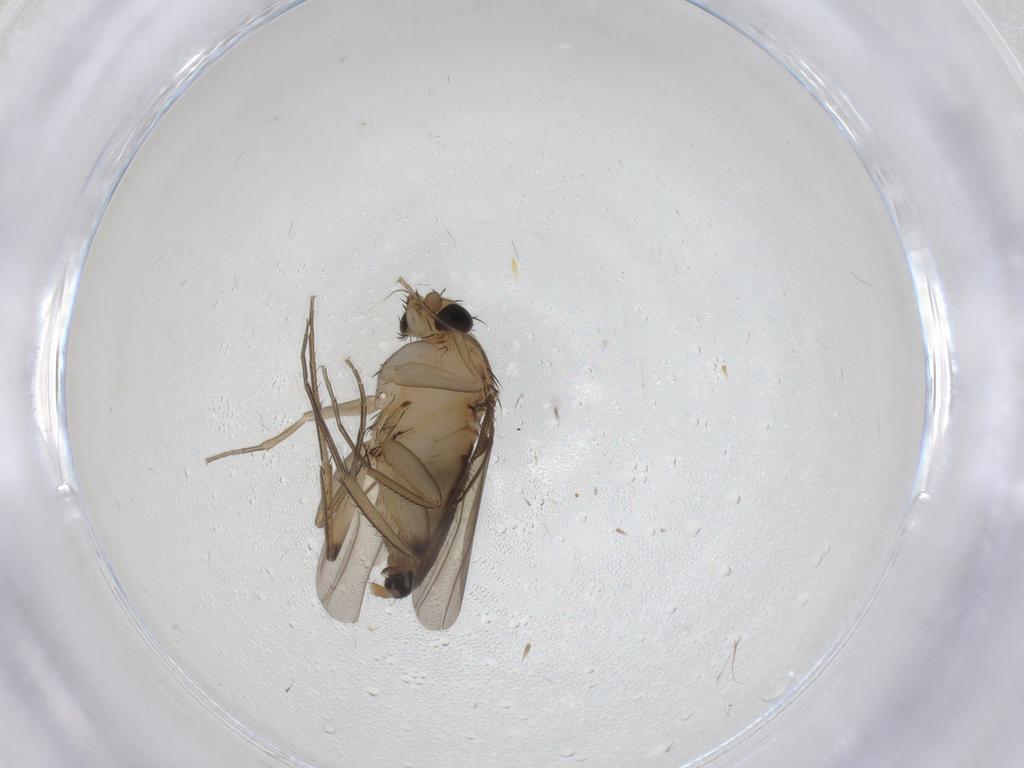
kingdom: Animalia
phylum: Arthropoda
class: Insecta
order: Diptera
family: Phoridae
